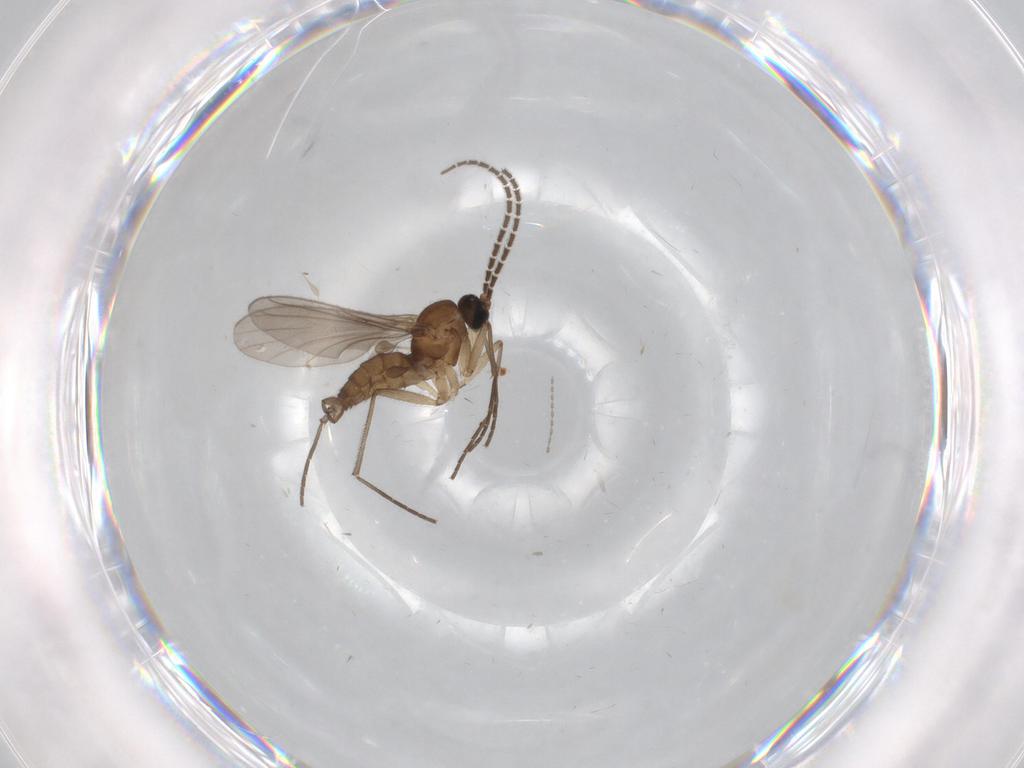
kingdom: Animalia
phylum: Arthropoda
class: Insecta
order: Diptera
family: Sciaridae
